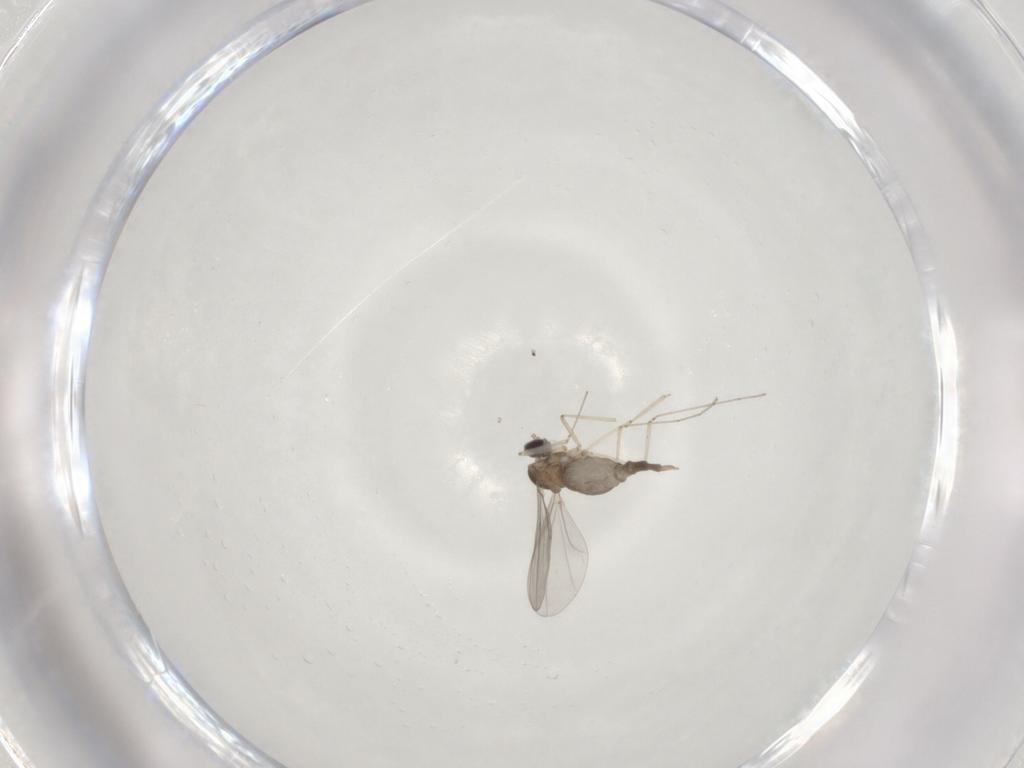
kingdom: Animalia
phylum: Arthropoda
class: Insecta
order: Diptera
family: Cecidomyiidae
